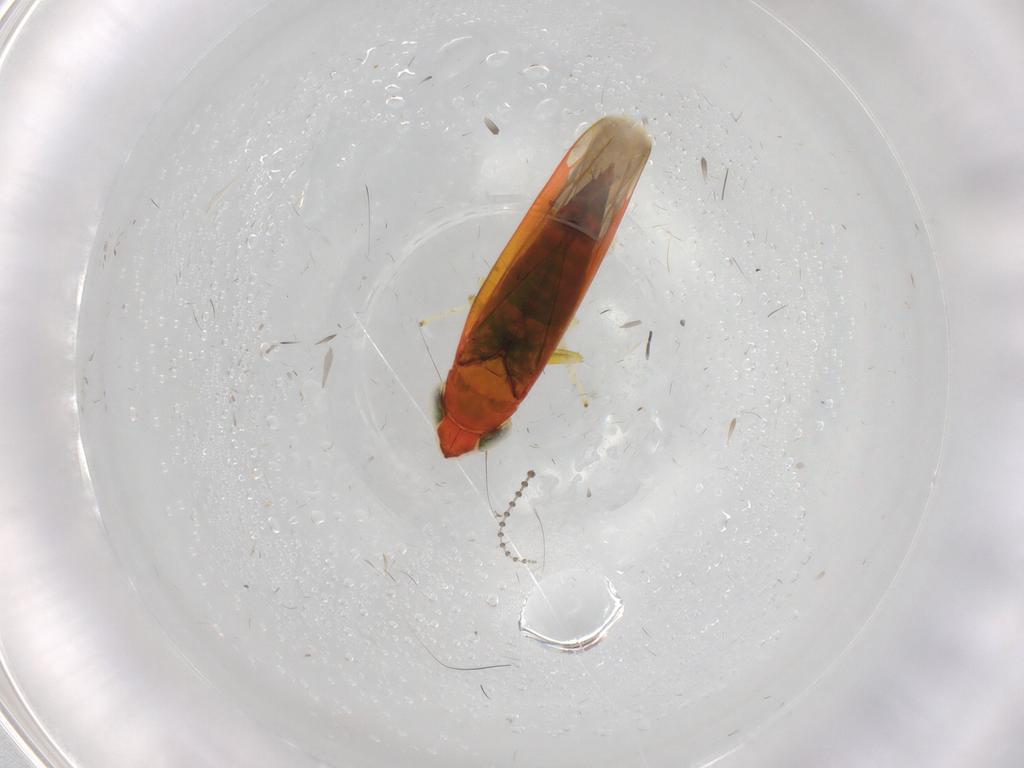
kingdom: Animalia
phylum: Arthropoda
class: Insecta
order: Hemiptera
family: Cicadellidae
